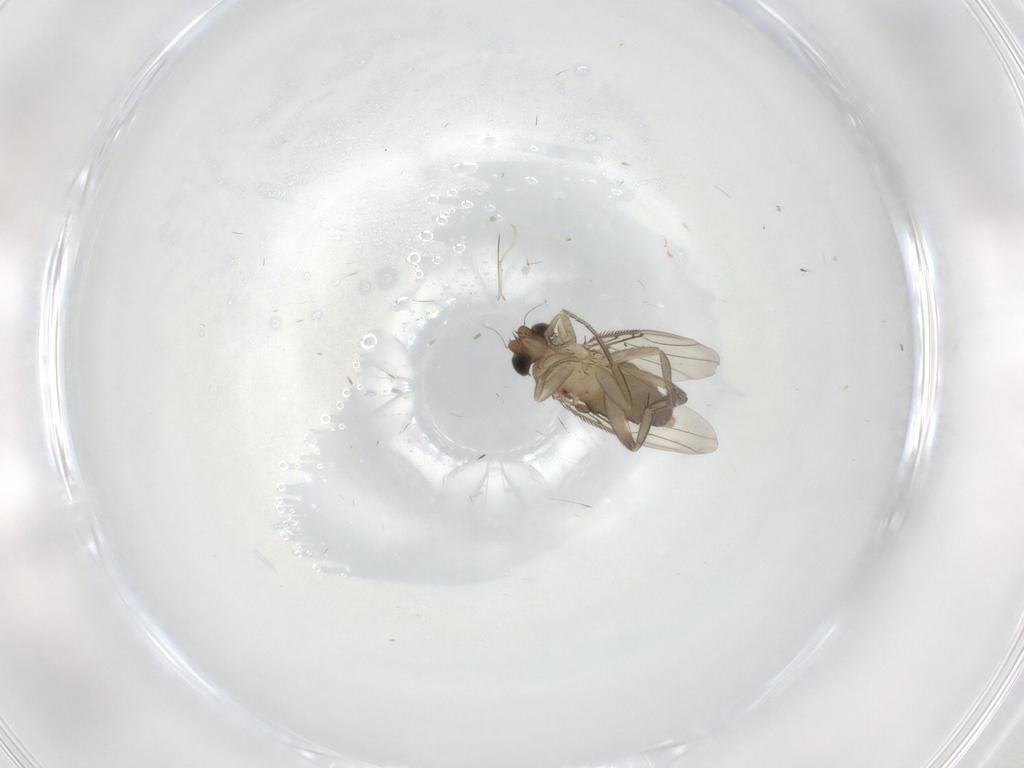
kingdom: Animalia
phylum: Arthropoda
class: Insecta
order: Diptera
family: Phoridae
